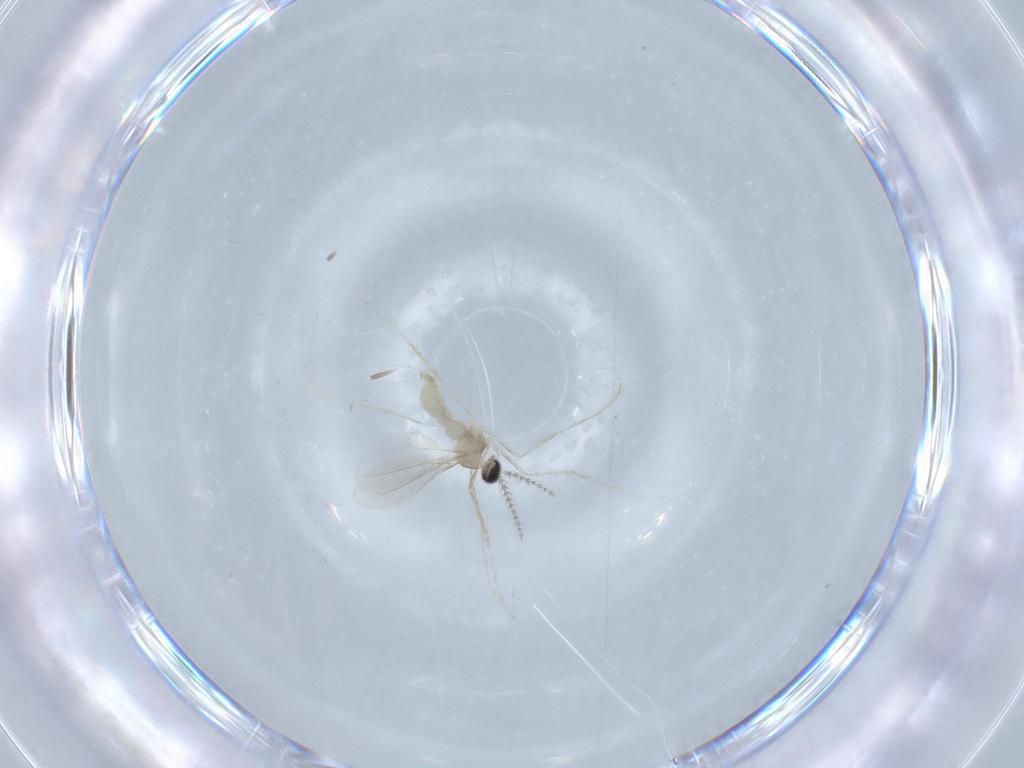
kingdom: Animalia
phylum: Arthropoda
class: Insecta
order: Diptera
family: Cecidomyiidae
